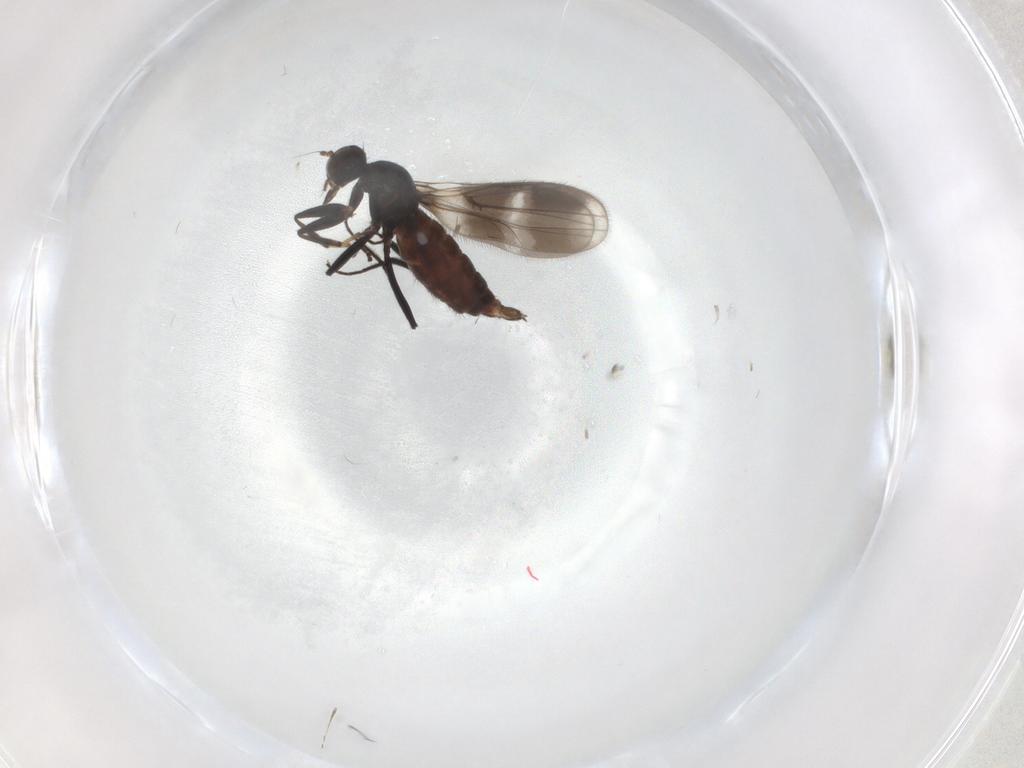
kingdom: Animalia
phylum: Arthropoda
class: Insecta
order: Diptera
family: Hybotidae
